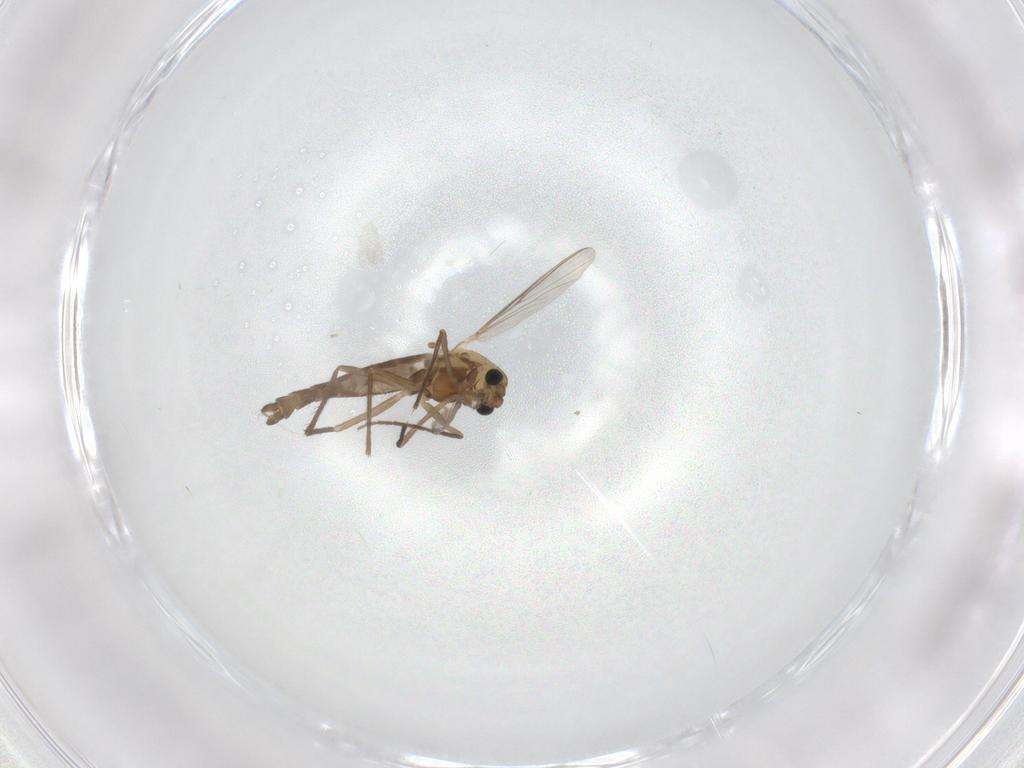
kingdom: Animalia
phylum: Arthropoda
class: Insecta
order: Diptera
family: Chironomidae
